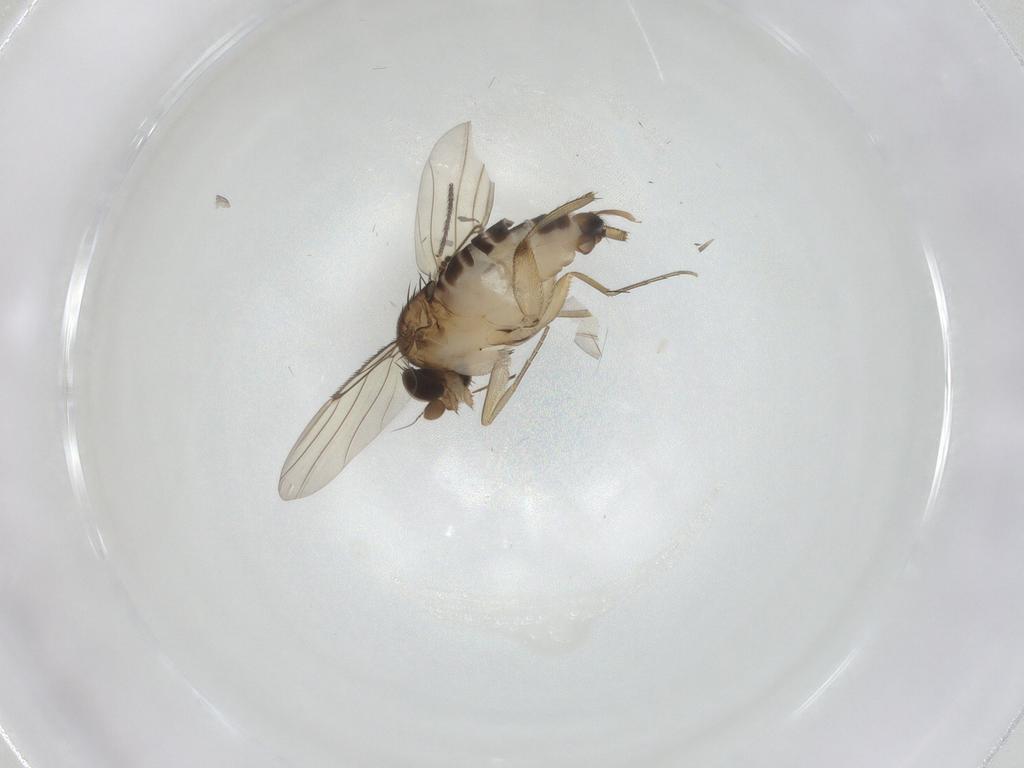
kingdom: Animalia
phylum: Arthropoda
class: Insecta
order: Diptera
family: Phoridae
